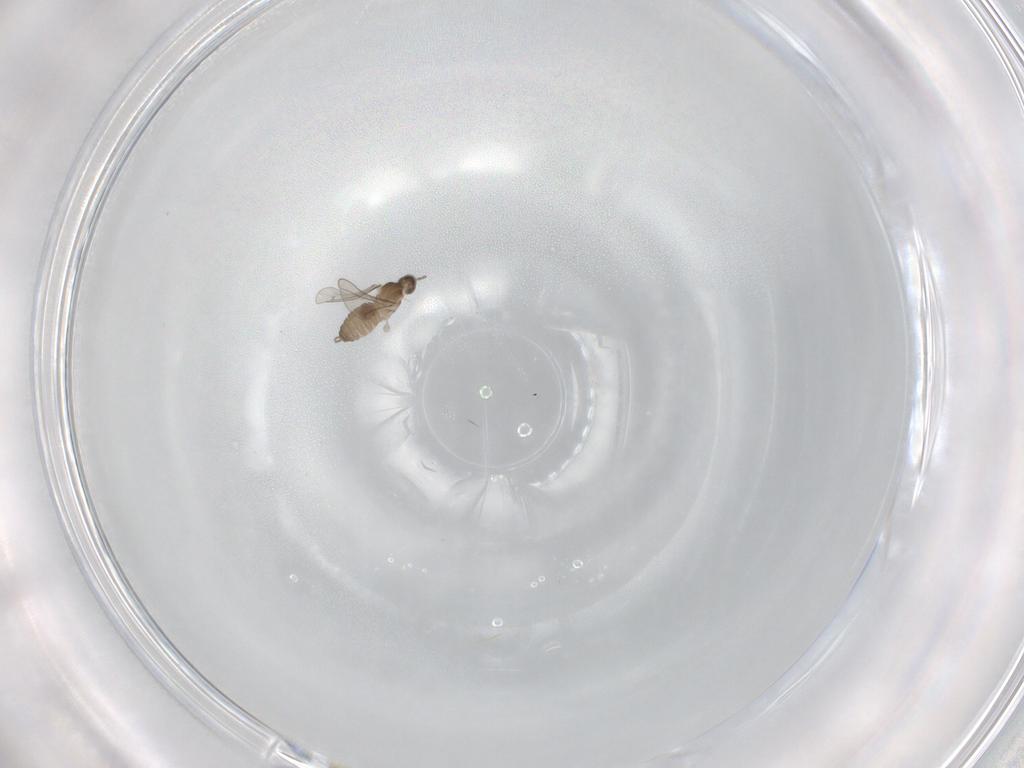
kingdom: Animalia
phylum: Arthropoda
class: Insecta
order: Diptera
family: Cecidomyiidae
